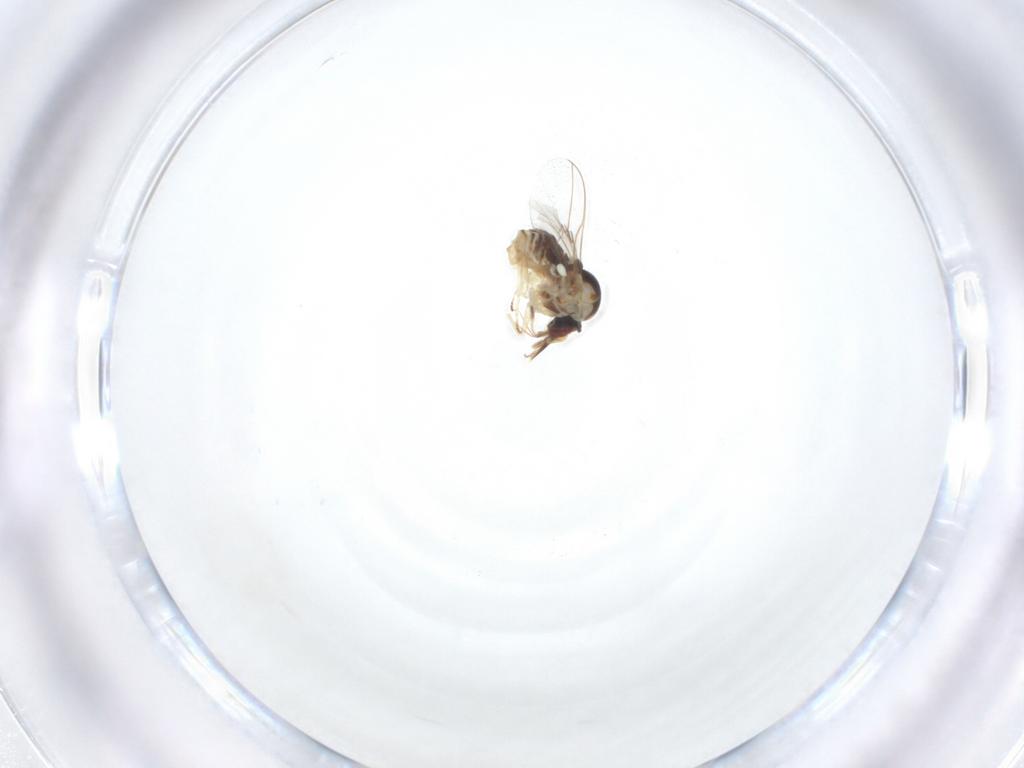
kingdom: Animalia
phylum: Arthropoda
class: Insecta
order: Diptera
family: Mythicomyiidae
